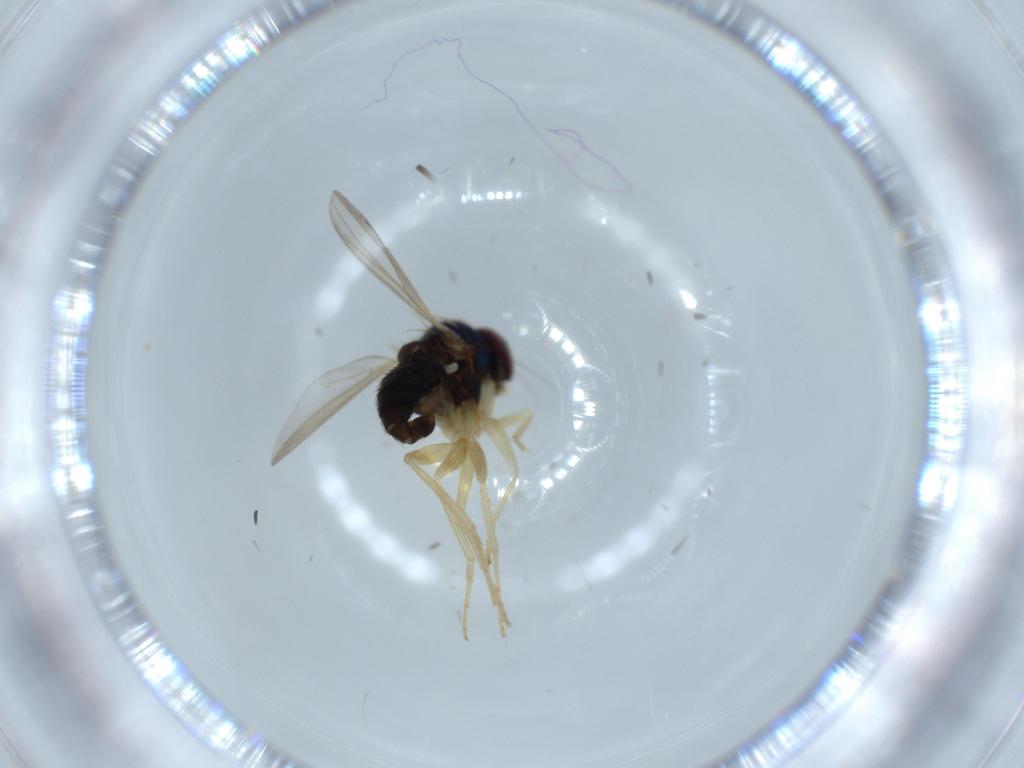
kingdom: Animalia
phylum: Arthropoda
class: Insecta
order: Diptera
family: Dolichopodidae
